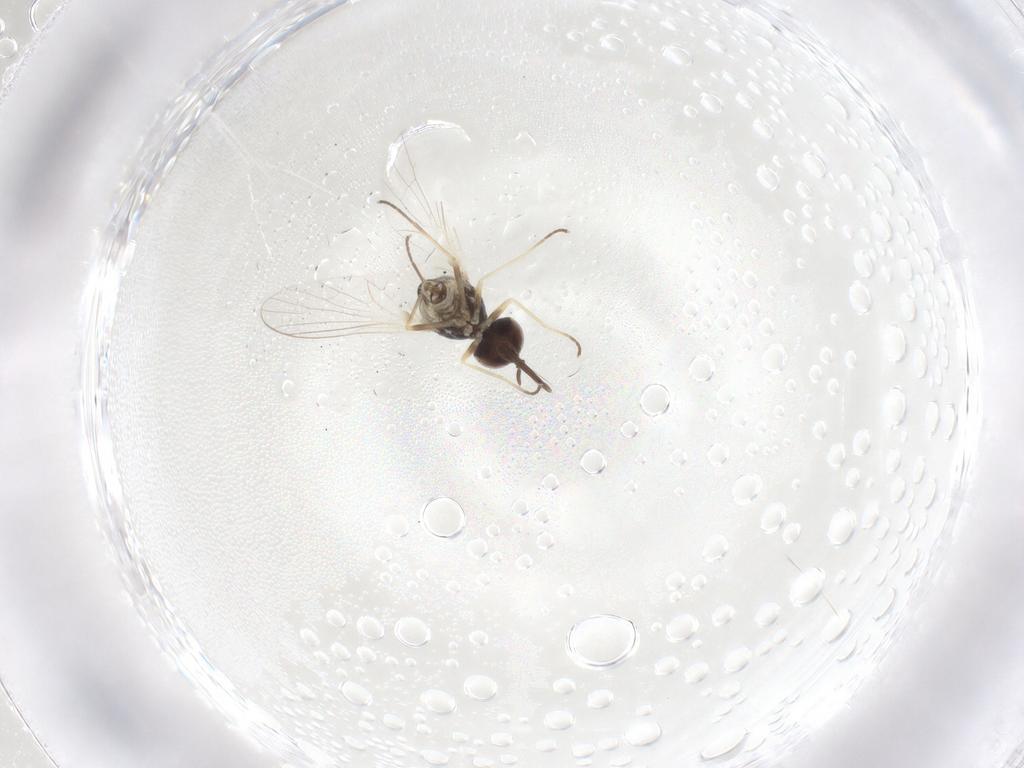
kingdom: Animalia
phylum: Arthropoda
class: Insecta
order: Diptera
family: Bombyliidae
